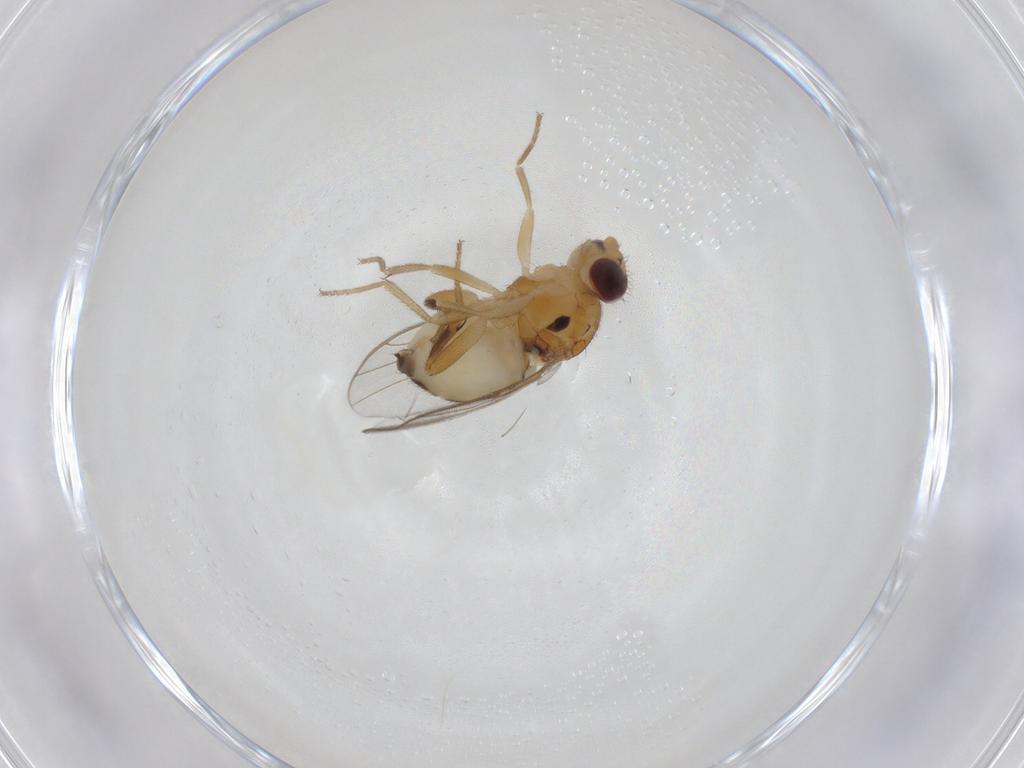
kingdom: Animalia
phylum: Arthropoda
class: Insecta
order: Diptera
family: Chloropidae
